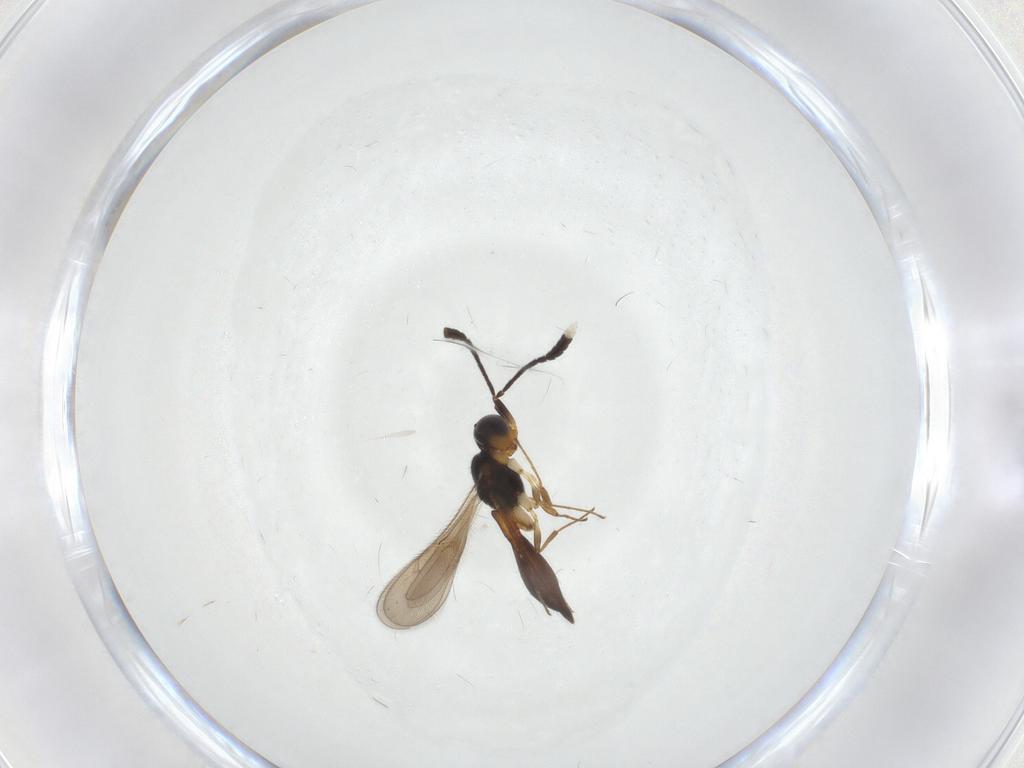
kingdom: Animalia
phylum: Arthropoda
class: Insecta
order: Hymenoptera
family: Scelionidae
